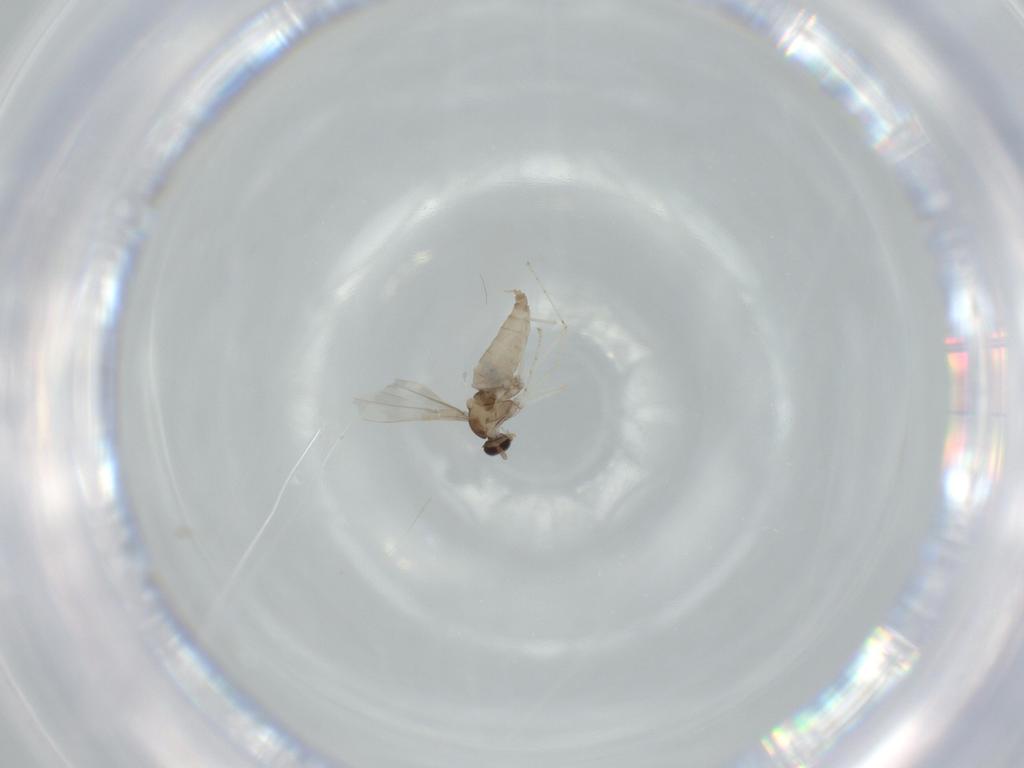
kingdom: Animalia
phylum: Arthropoda
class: Insecta
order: Diptera
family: Cecidomyiidae
